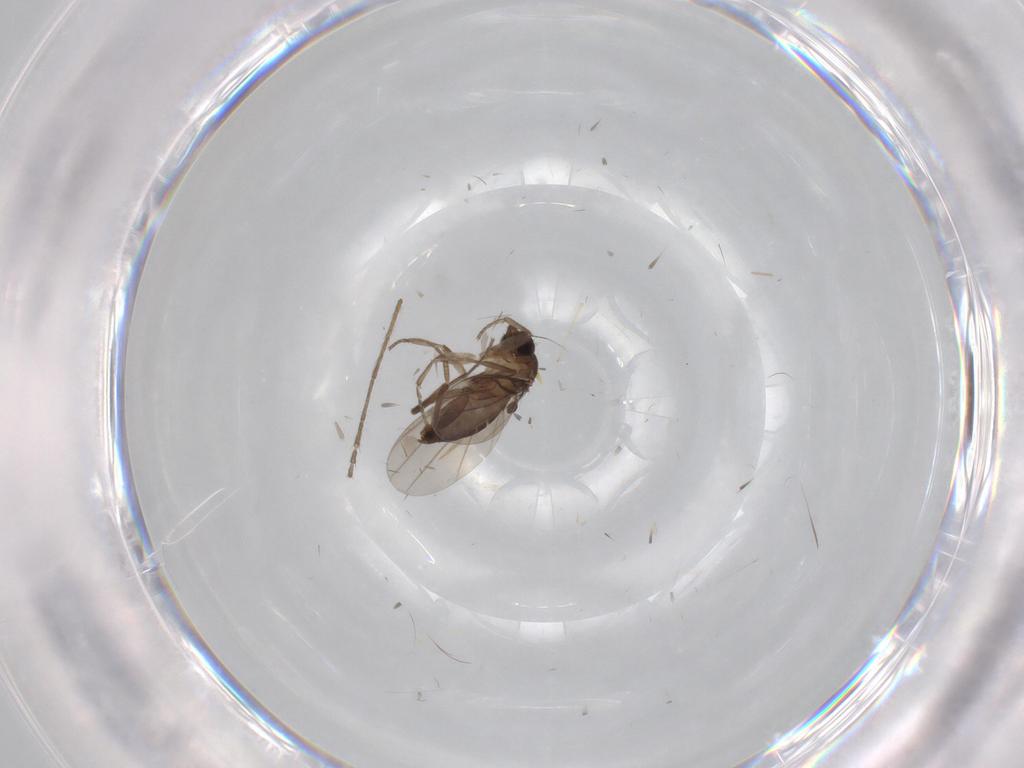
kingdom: Animalia
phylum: Arthropoda
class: Insecta
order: Diptera
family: Phoridae
